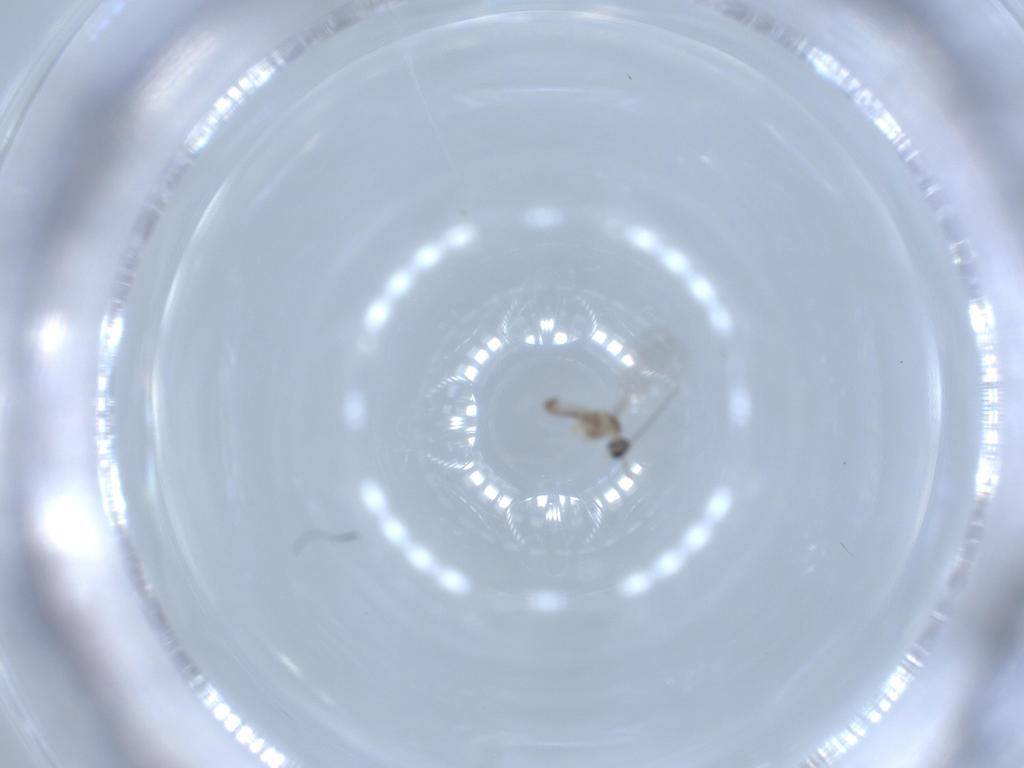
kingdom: Animalia
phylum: Arthropoda
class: Insecta
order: Diptera
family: Cecidomyiidae
